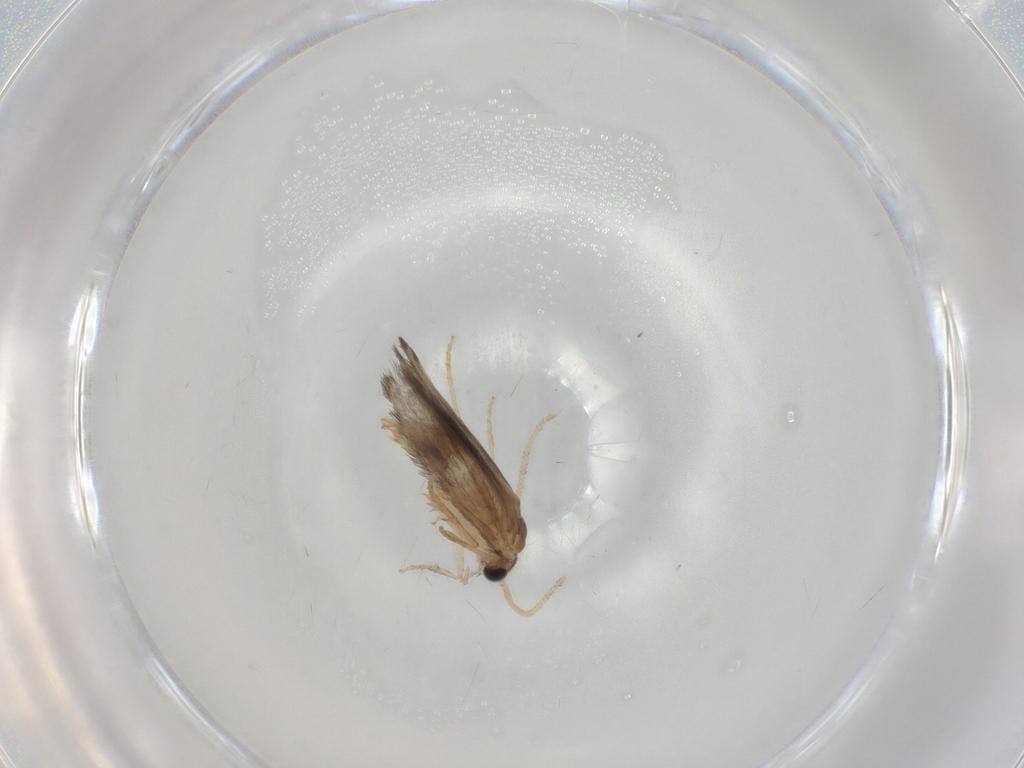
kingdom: Animalia
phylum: Arthropoda
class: Insecta
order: Trichoptera
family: Hydroptilidae
